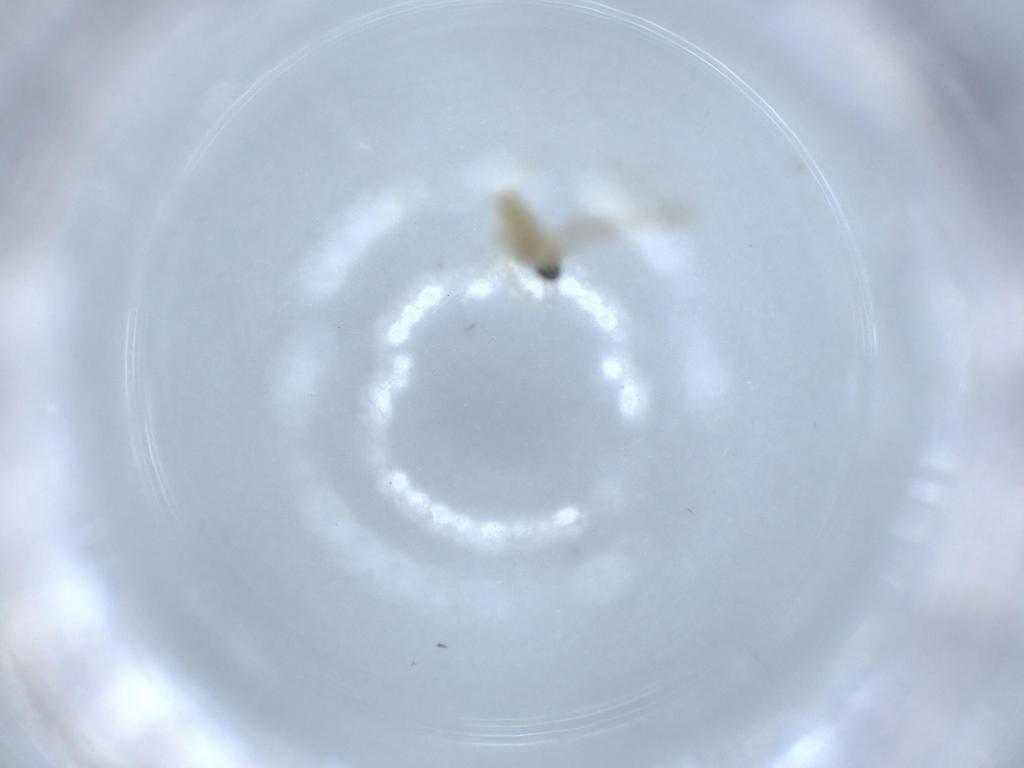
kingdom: Animalia
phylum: Arthropoda
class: Insecta
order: Diptera
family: Cecidomyiidae
